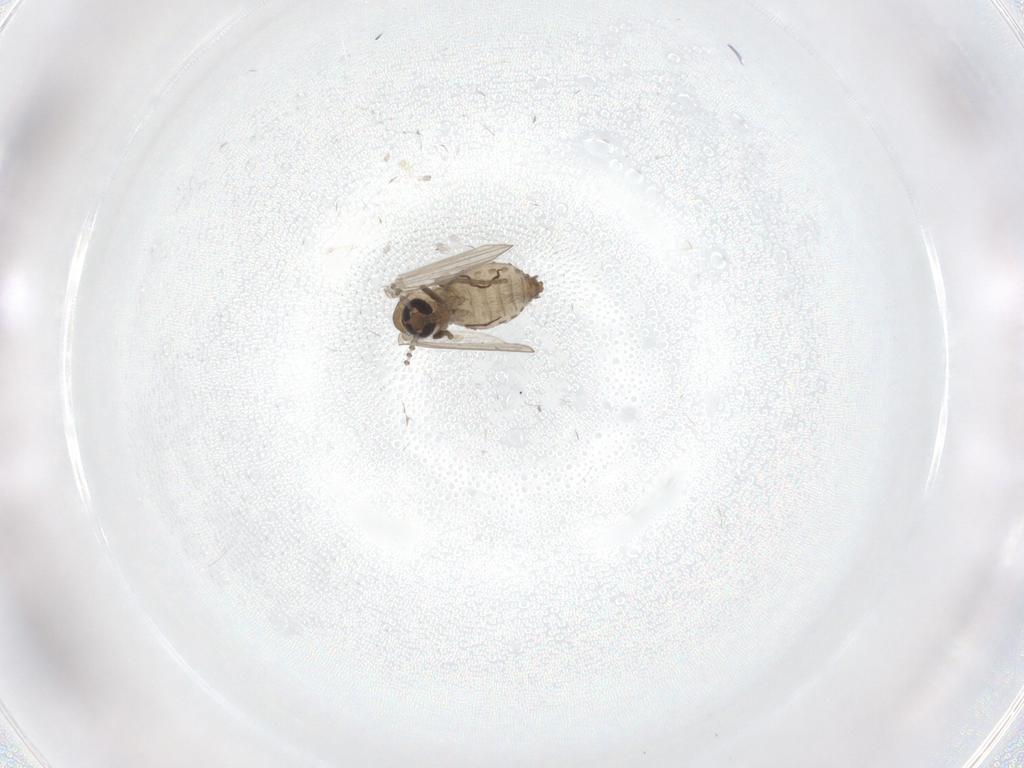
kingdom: Animalia
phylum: Arthropoda
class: Insecta
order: Diptera
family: Psychodidae
